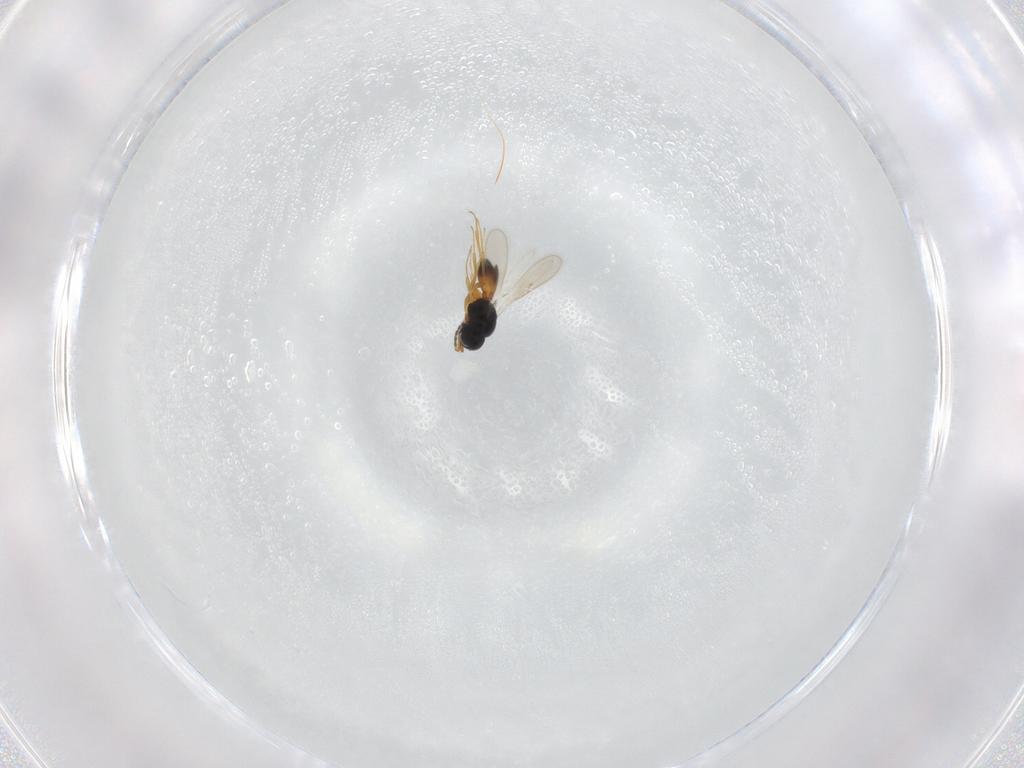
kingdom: Animalia
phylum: Arthropoda
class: Insecta
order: Hymenoptera
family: Scelionidae
